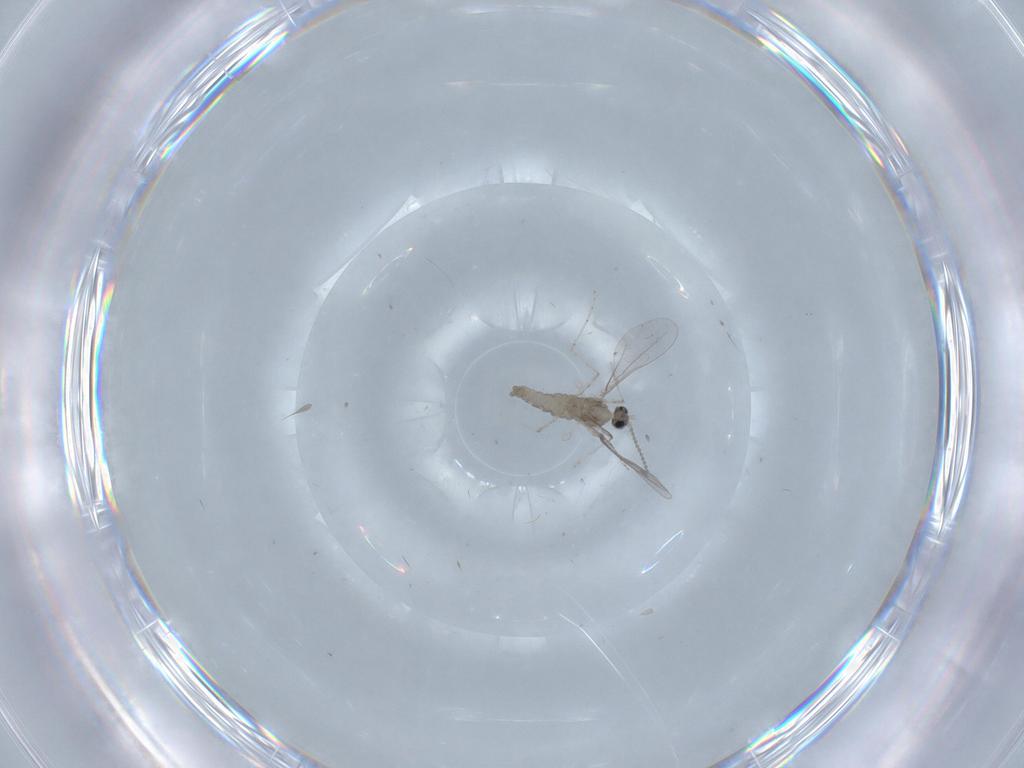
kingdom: Animalia
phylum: Arthropoda
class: Insecta
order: Diptera
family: Cecidomyiidae
